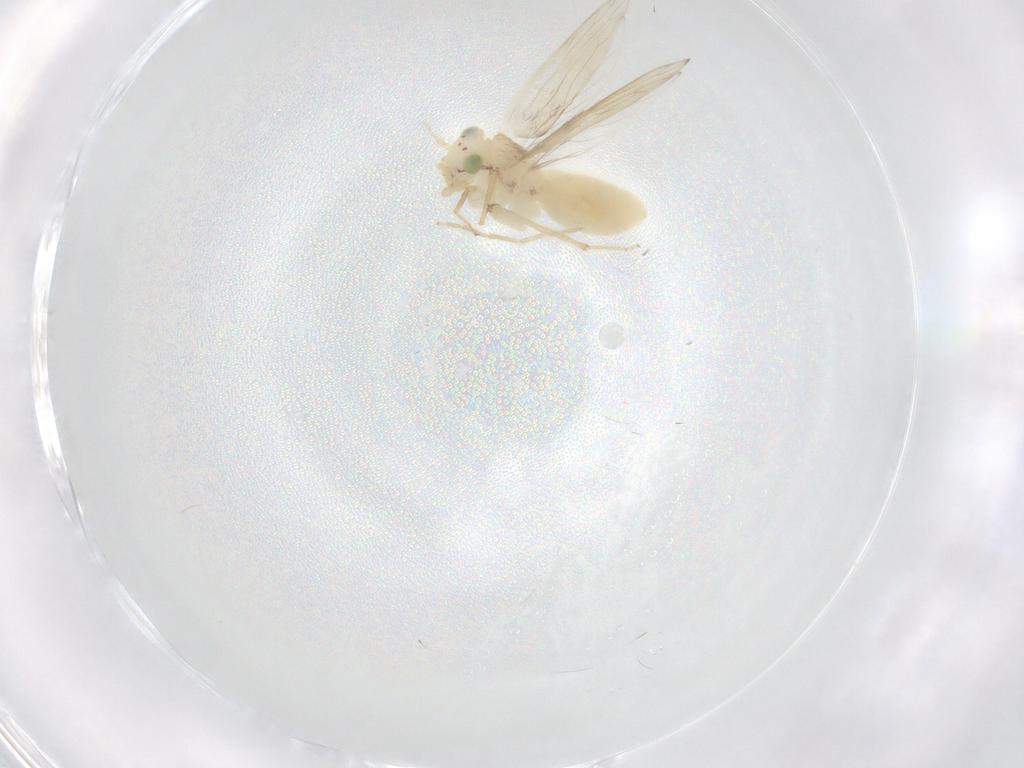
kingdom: Animalia
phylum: Arthropoda
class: Insecta
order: Psocodea
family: Lepidopsocidae
